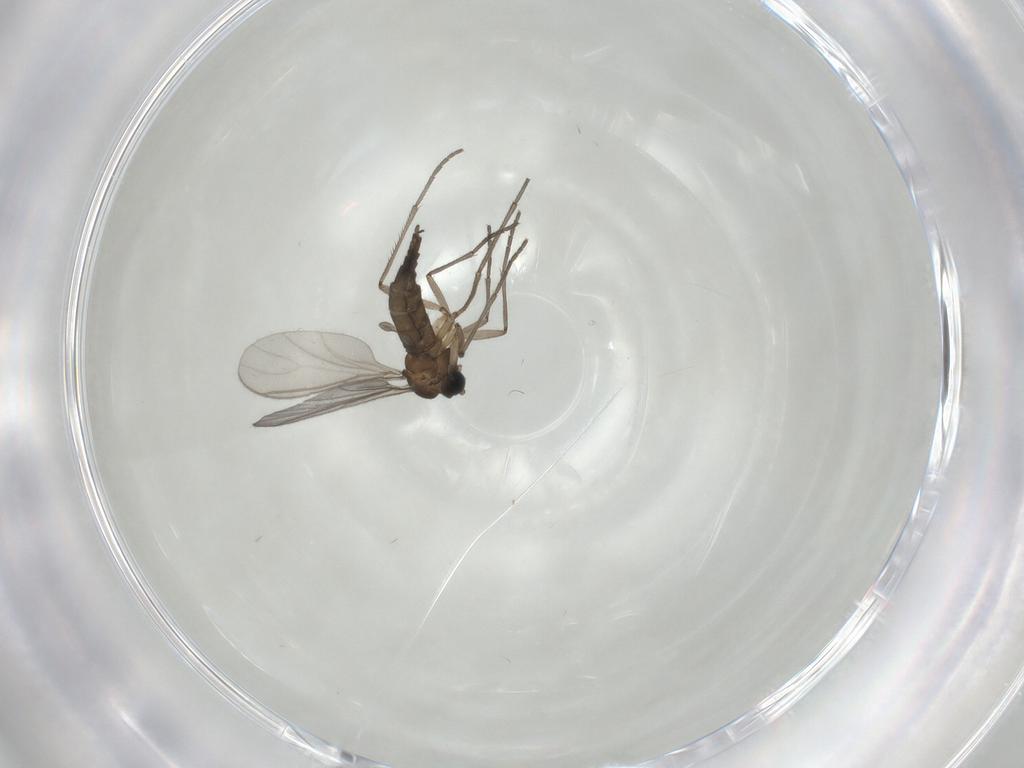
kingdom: Animalia
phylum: Arthropoda
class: Insecta
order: Diptera
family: Sciaridae
